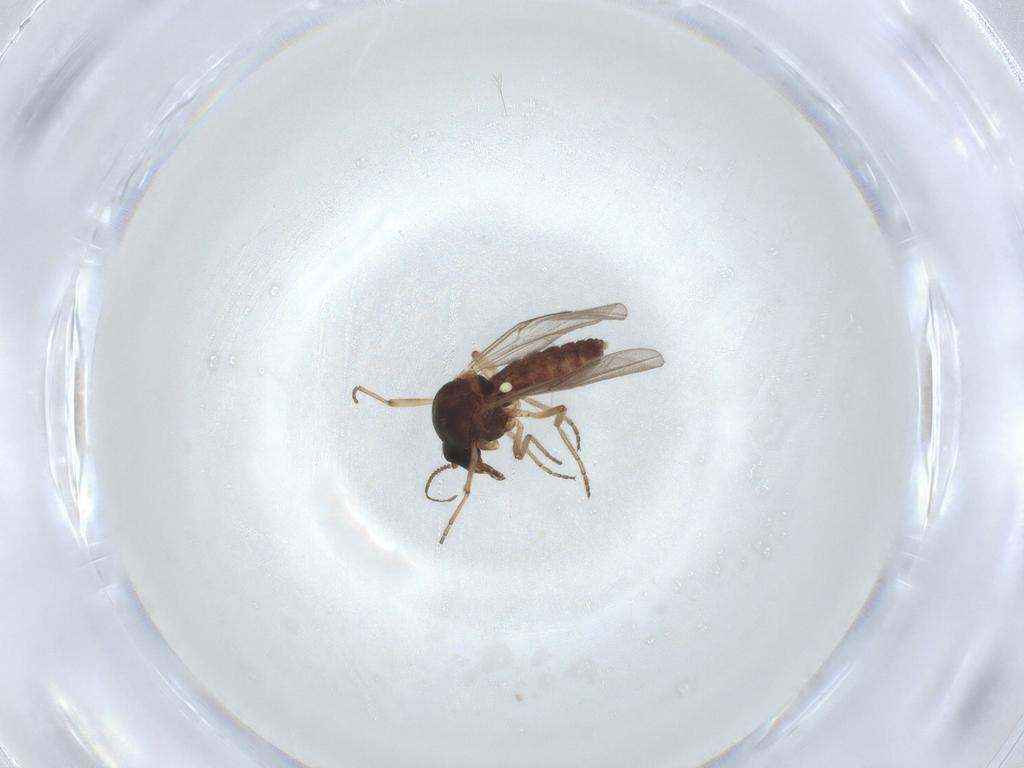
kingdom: Animalia
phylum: Arthropoda
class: Insecta
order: Diptera
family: Ceratopogonidae
